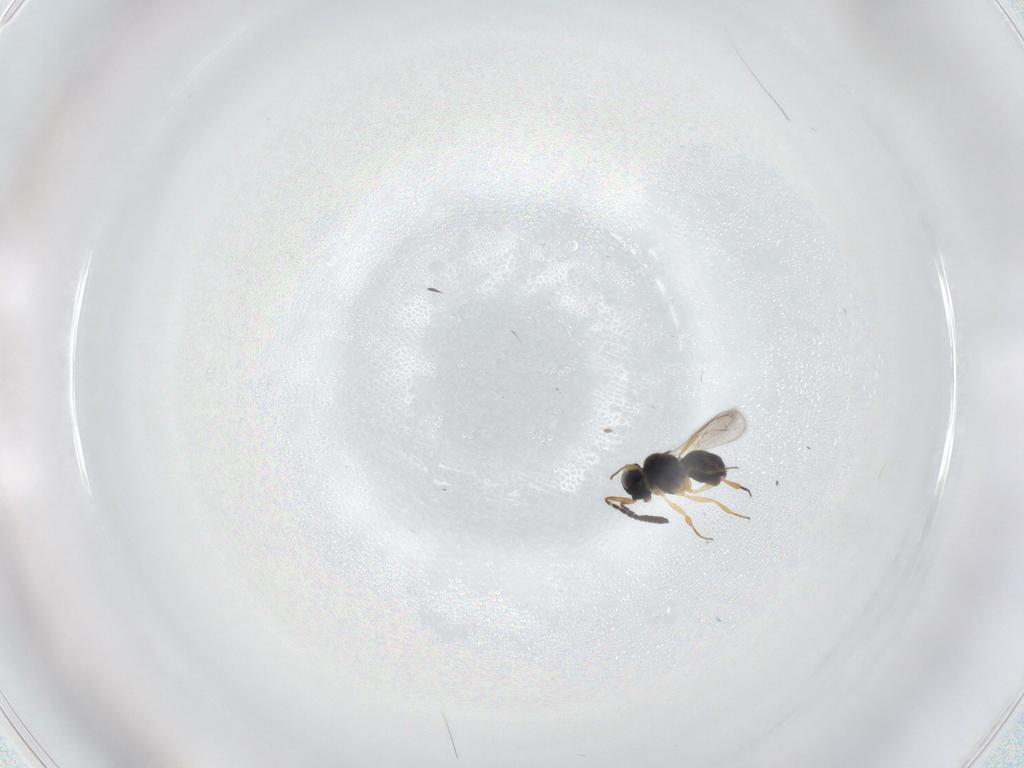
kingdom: Animalia
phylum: Arthropoda
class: Insecta
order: Hymenoptera
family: Scelionidae
